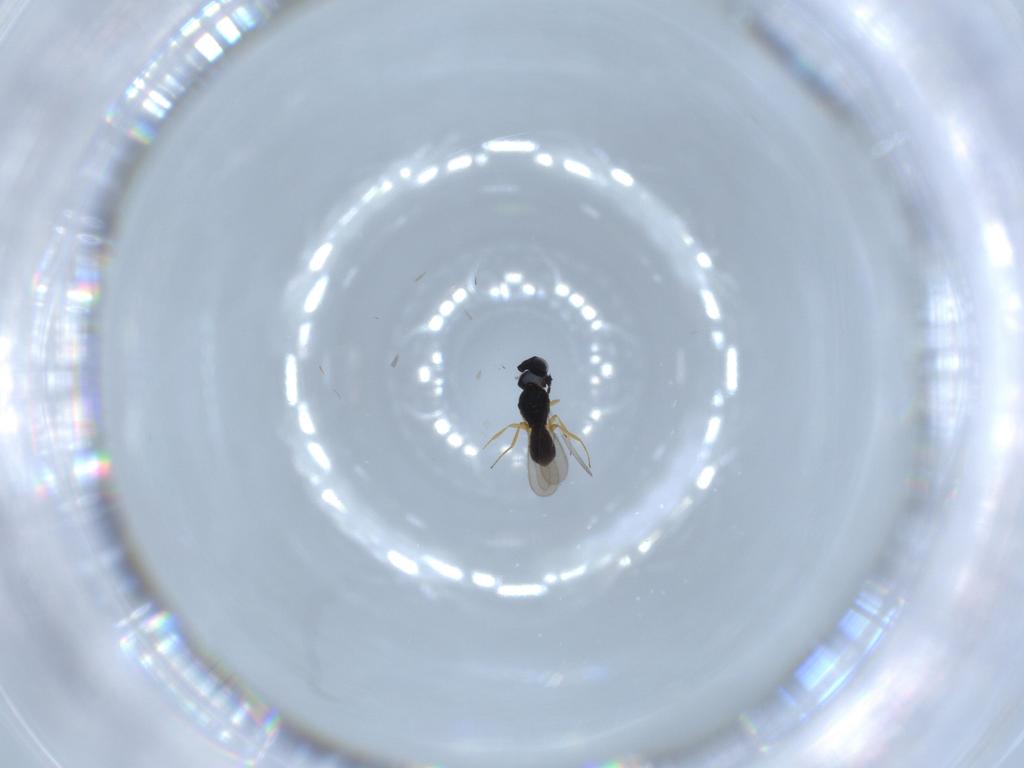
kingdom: Animalia
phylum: Arthropoda
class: Insecta
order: Hymenoptera
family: Scelionidae
